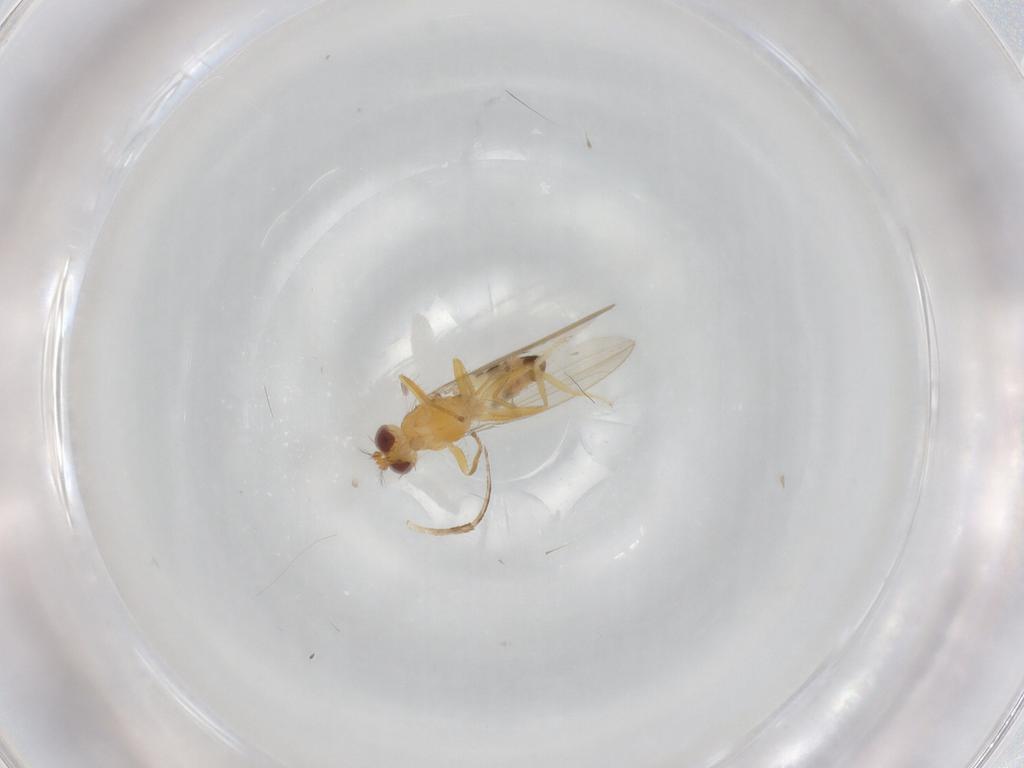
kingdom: Animalia
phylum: Arthropoda
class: Insecta
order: Diptera
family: Periscelididae
